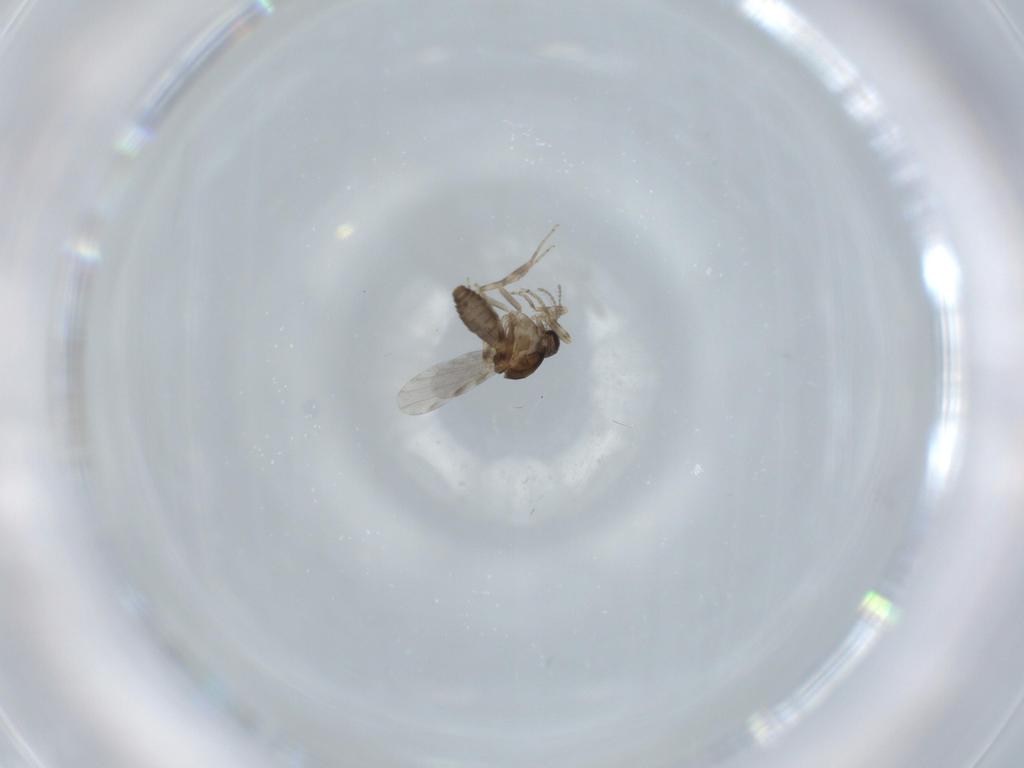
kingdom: Animalia
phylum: Arthropoda
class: Insecta
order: Diptera
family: Ceratopogonidae
